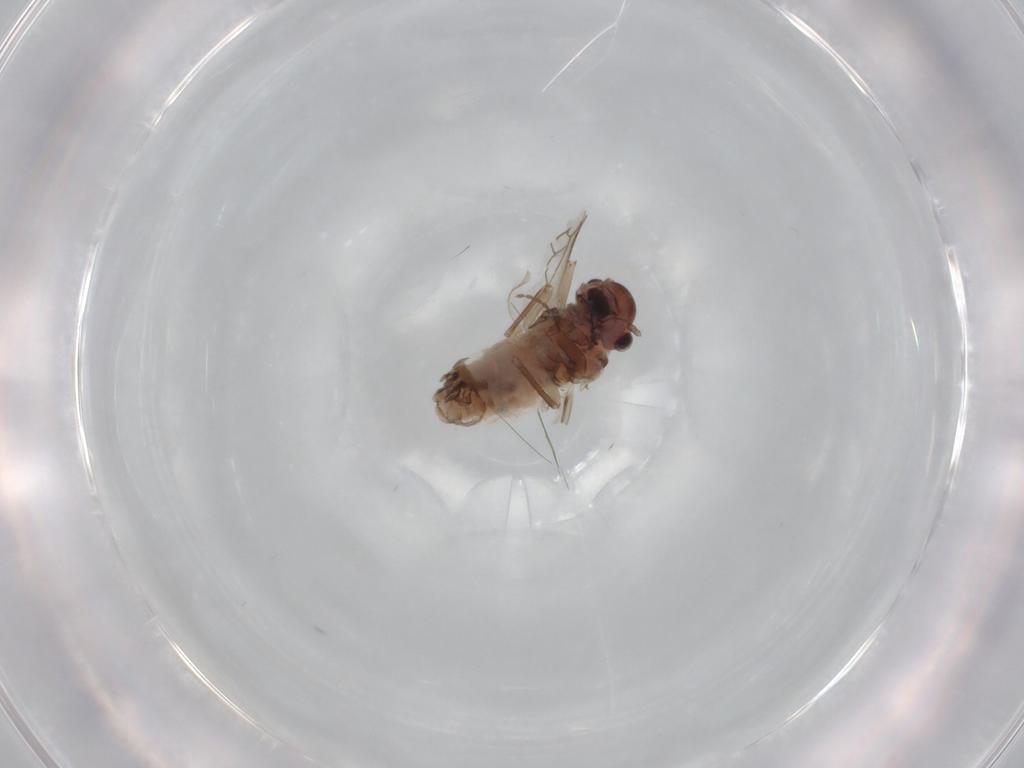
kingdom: Animalia
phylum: Arthropoda
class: Insecta
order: Psocodea
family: Peripsocidae
